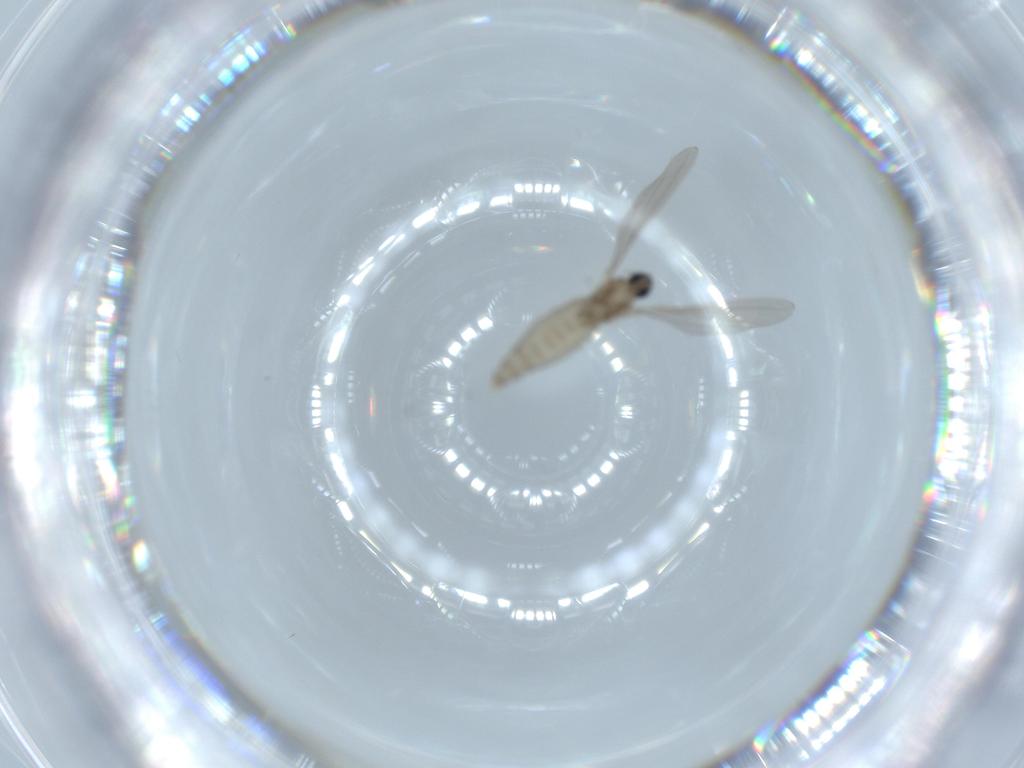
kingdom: Animalia
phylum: Arthropoda
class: Insecta
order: Diptera
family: Cecidomyiidae
